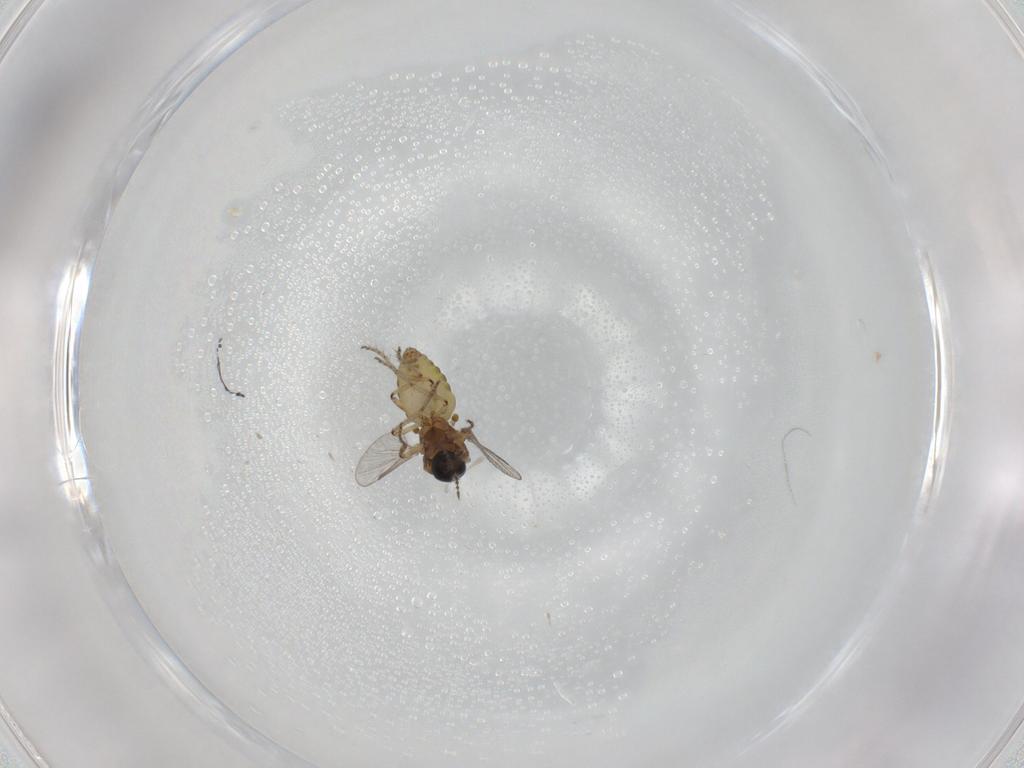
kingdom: Animalia
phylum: Arthropoda
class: Insecta
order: Diptera
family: Ceratopogonidae
